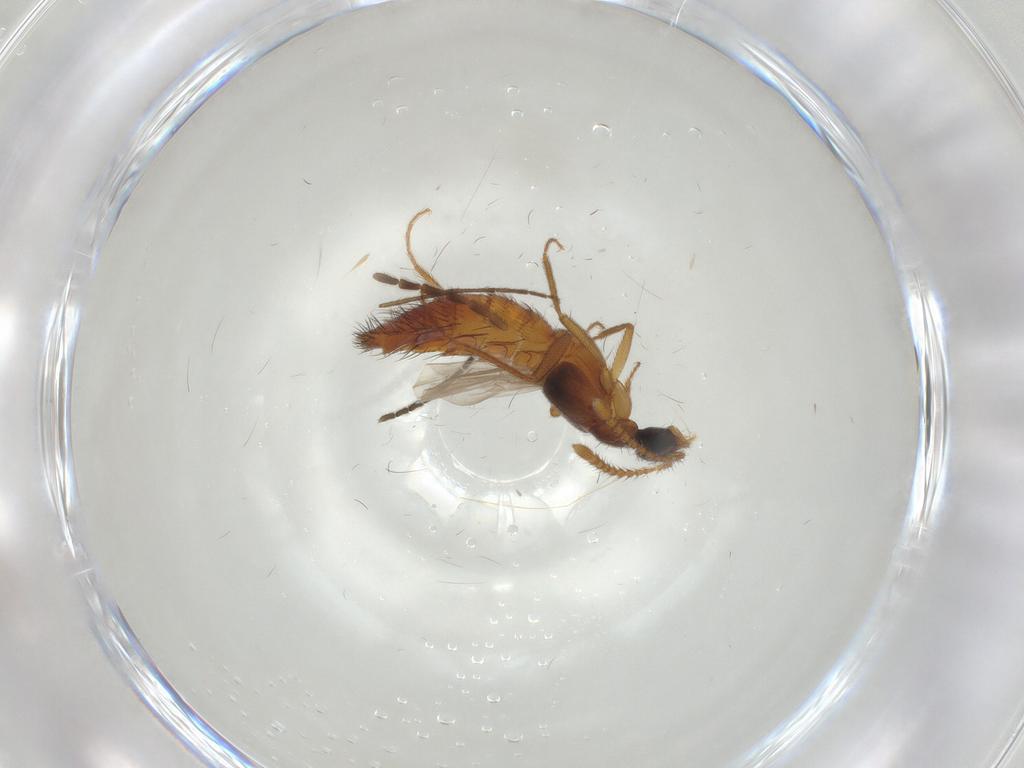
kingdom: Animalia
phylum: Arthropoda
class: Insecta
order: Coleoptera
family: Staphylinidae
